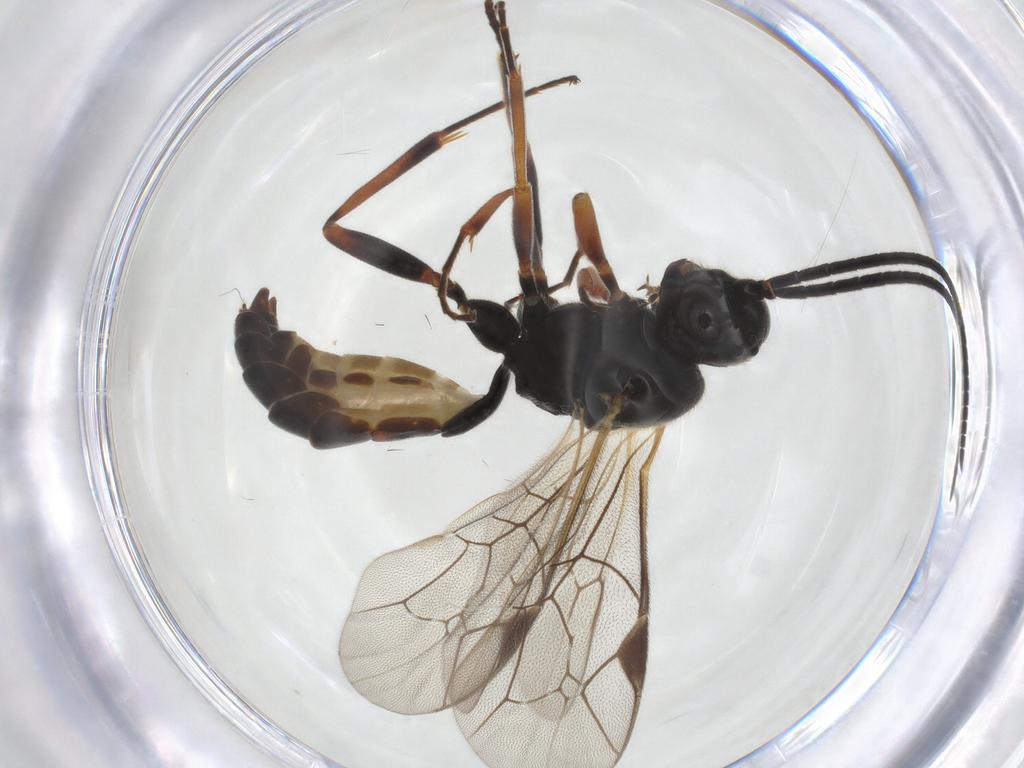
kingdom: Animalia
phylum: Arthropoda
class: Insecta
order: Hymenoptera
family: Ichneumonidae
